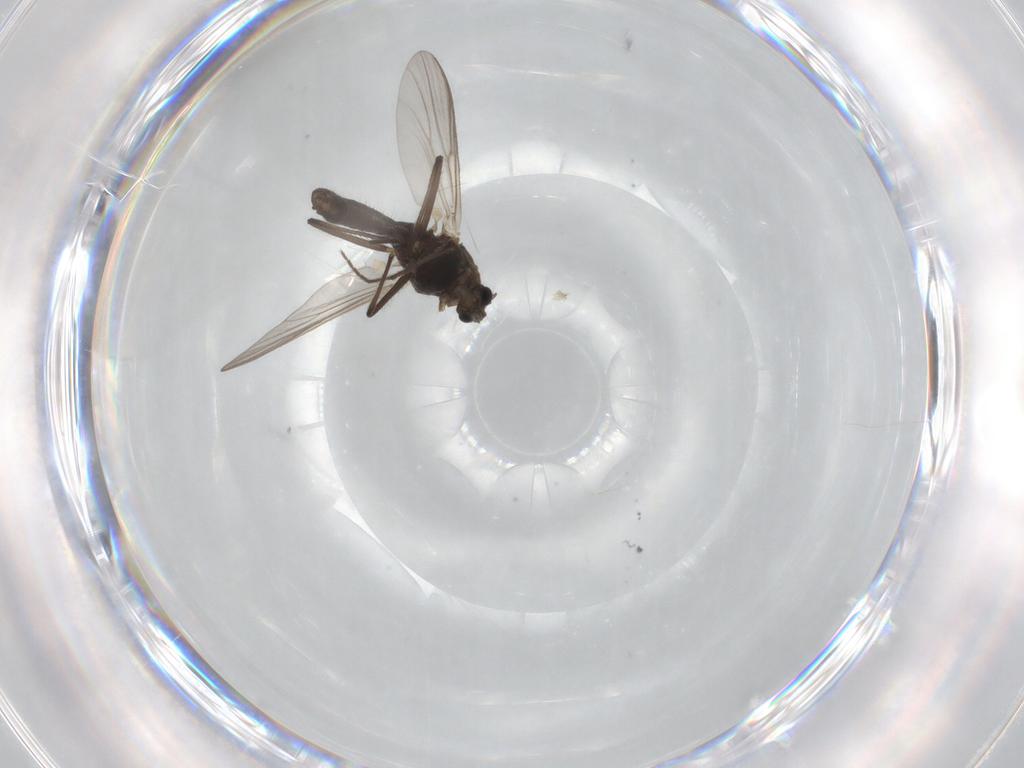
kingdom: Animalia
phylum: Arthropoda
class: Insecta
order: Diptera
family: Chironomidae
